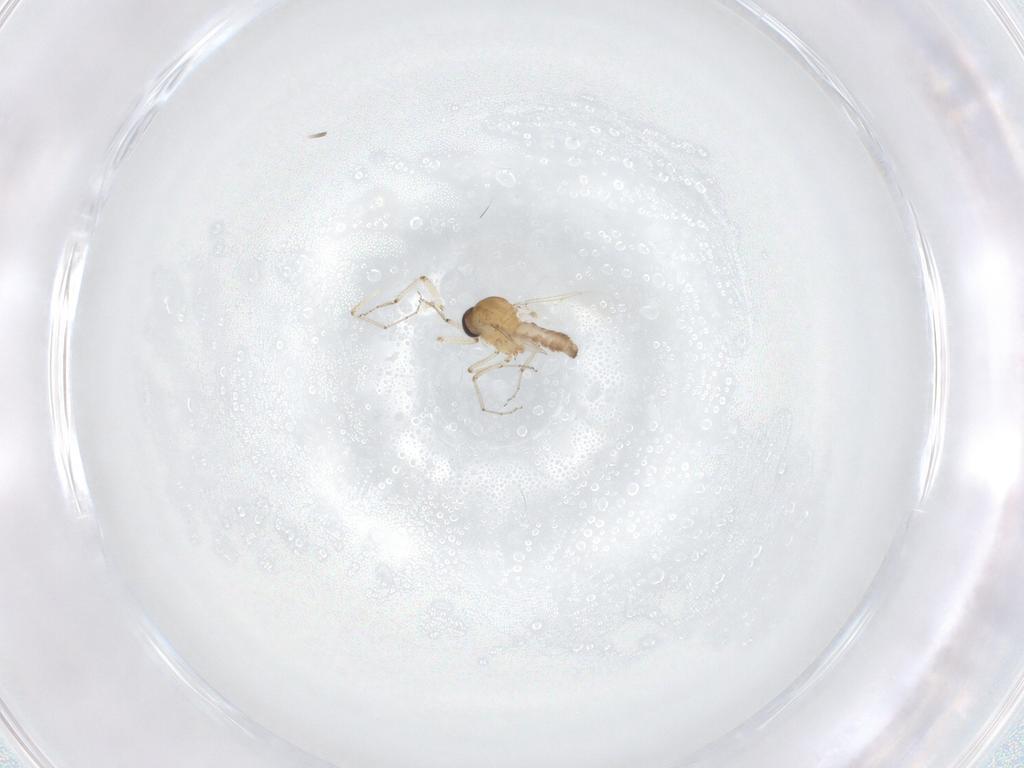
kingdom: Animalia
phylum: Arthropoda
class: Insecta
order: Diptera
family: Ceratopogonidae
